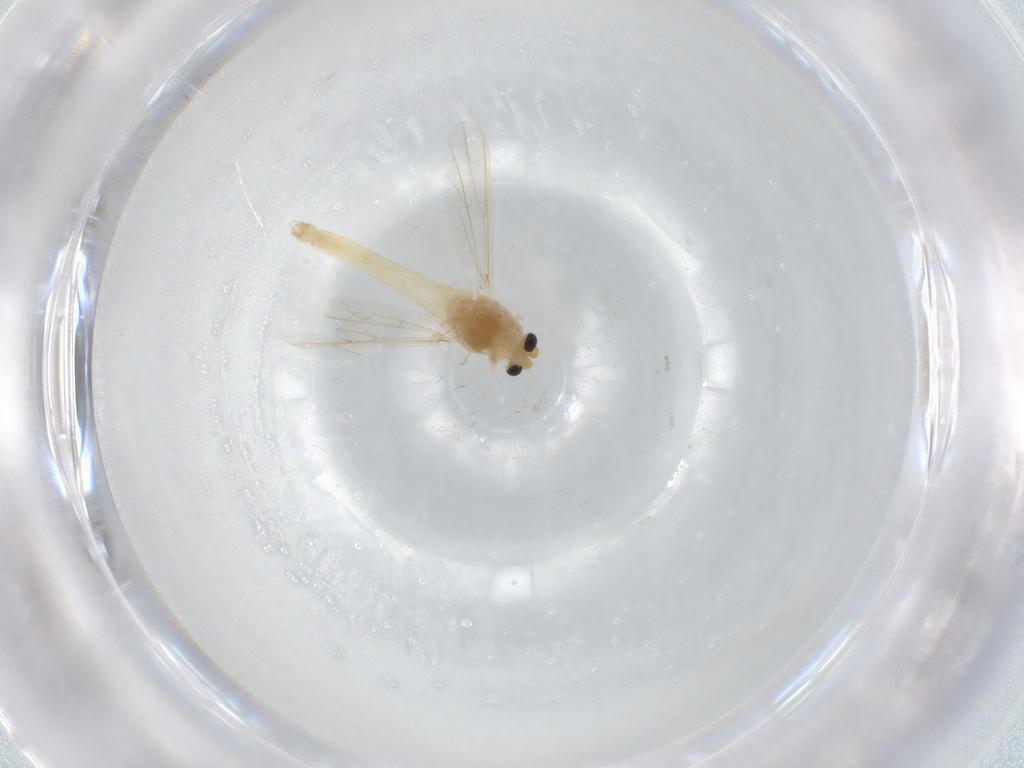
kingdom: Animalia
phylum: Arthropoda
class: Insecta
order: Diptera
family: Chironomidae
